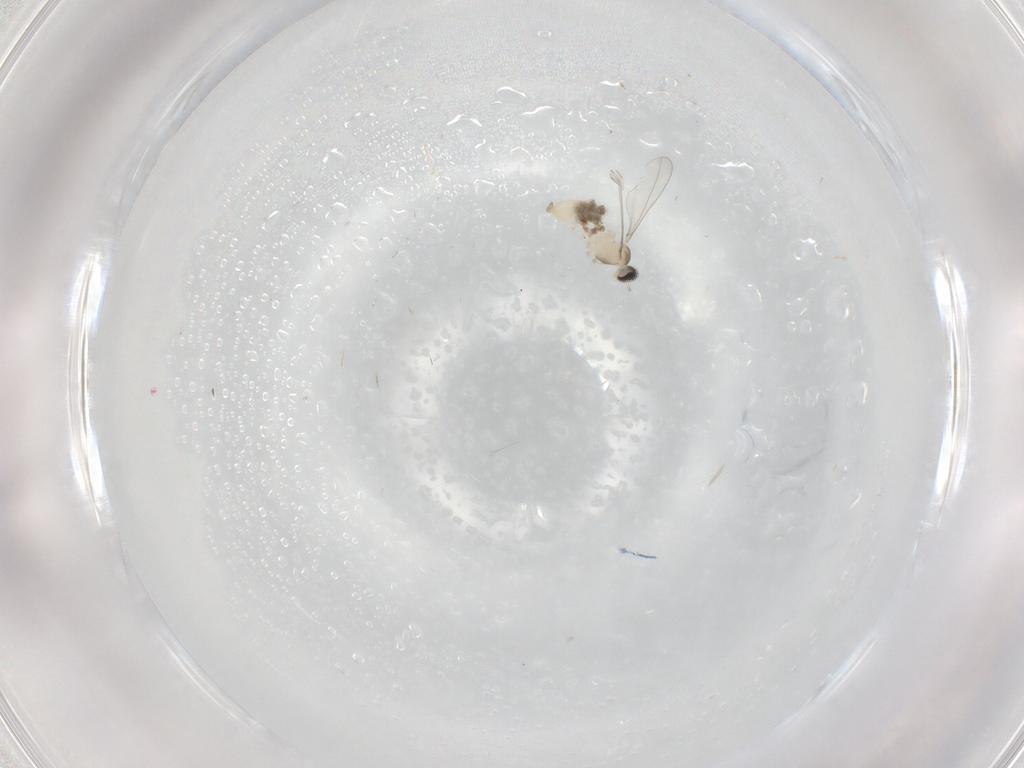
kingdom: Animalia
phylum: Arthropoda
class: Insecta
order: Diptera
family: Cecidomyiidae
